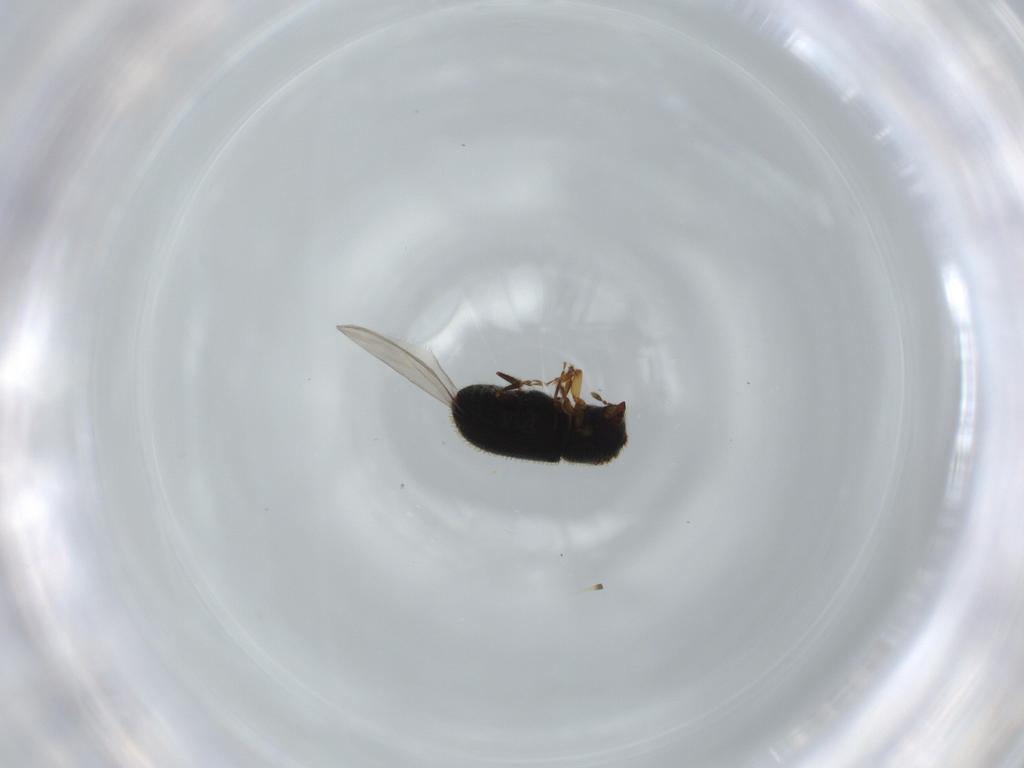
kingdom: Animalia
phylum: Arthropoda
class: Insecta
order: Coleoptera
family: Curculionidae
